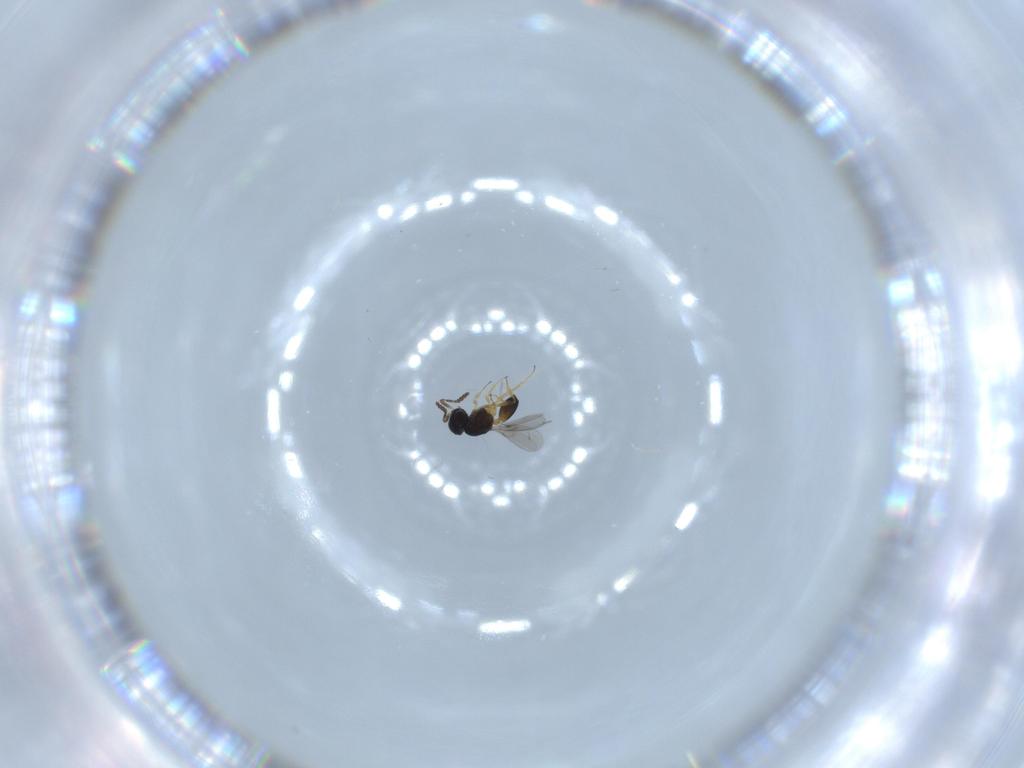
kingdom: Animalia
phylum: Arthropoda
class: Insecta
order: Hymenoptera
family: Scelionidae
